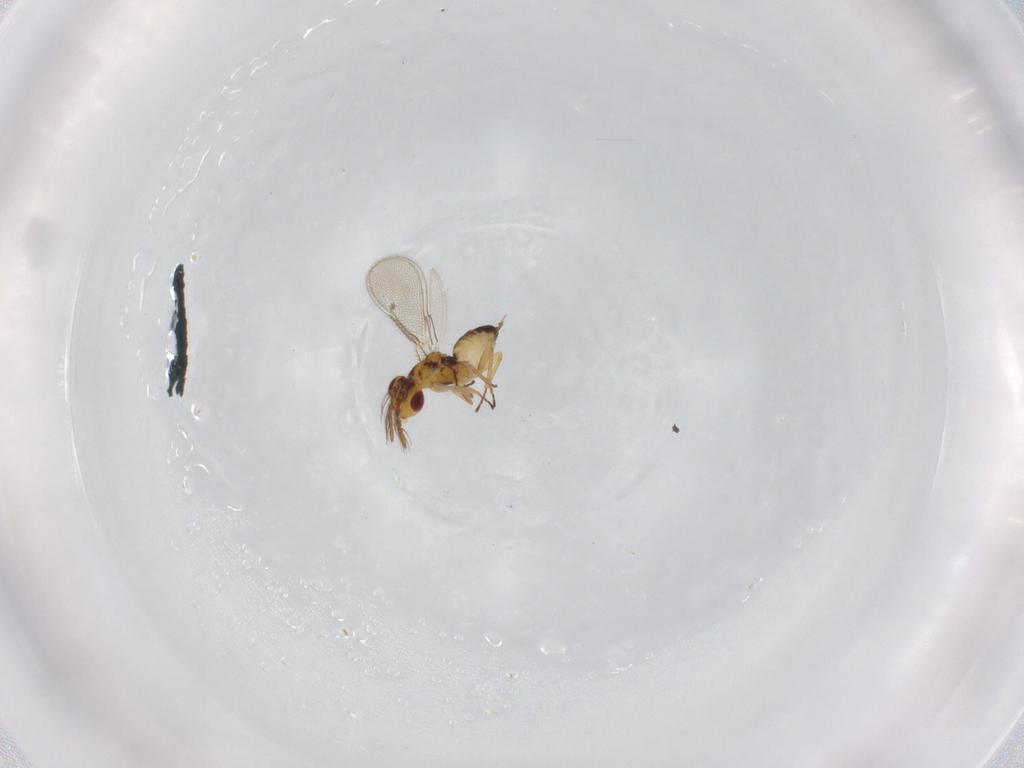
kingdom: Animalia
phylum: Arthropoda
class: Insecta
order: Hymenoptera
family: Eulophidae
